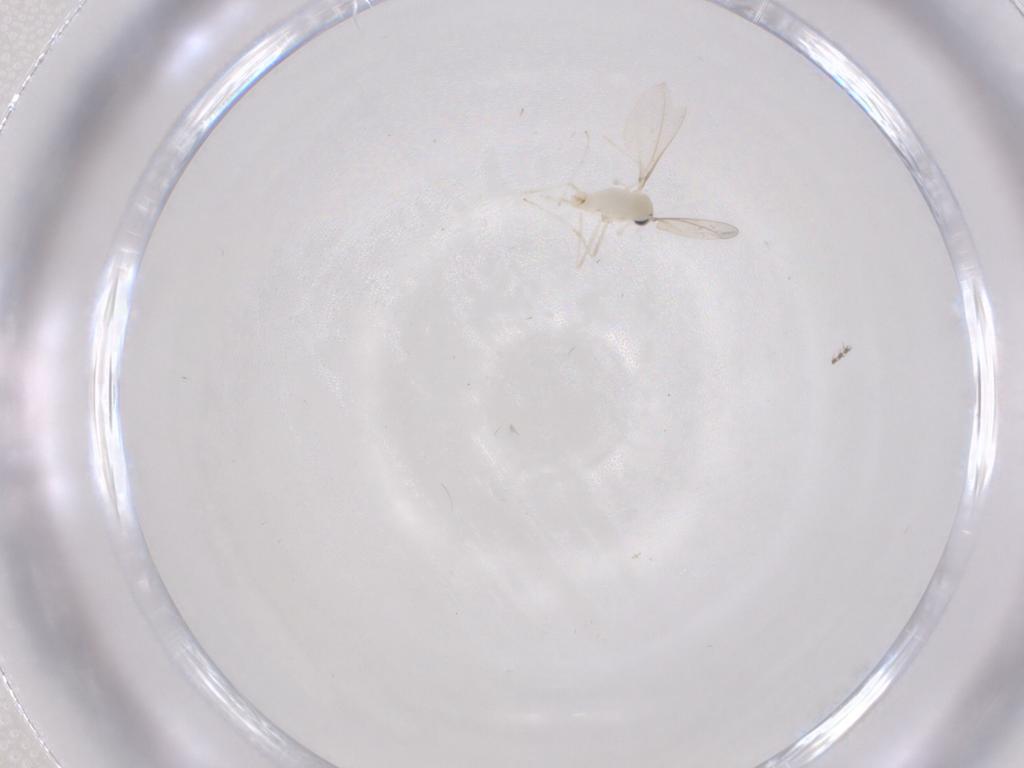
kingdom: Animalia
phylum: Arthropoda
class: Insecta
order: Diptera
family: Cecidomyiidae
